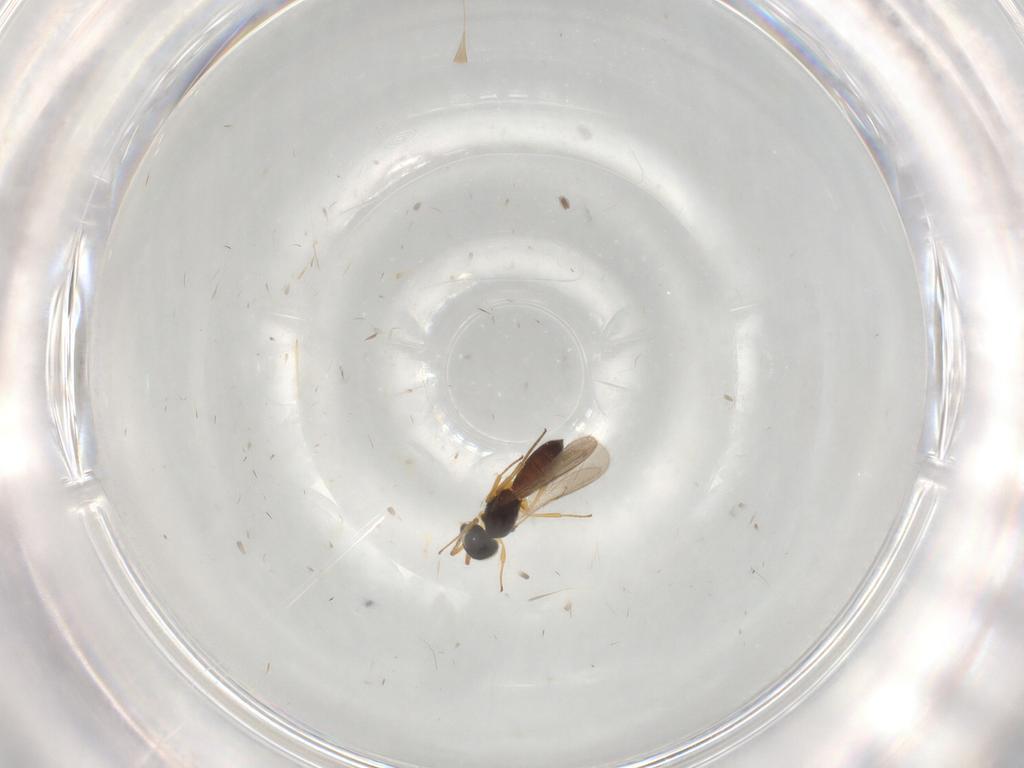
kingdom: Animalia
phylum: Arthropoda
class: Insecta
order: Hymenoptera
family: Scelionidae
